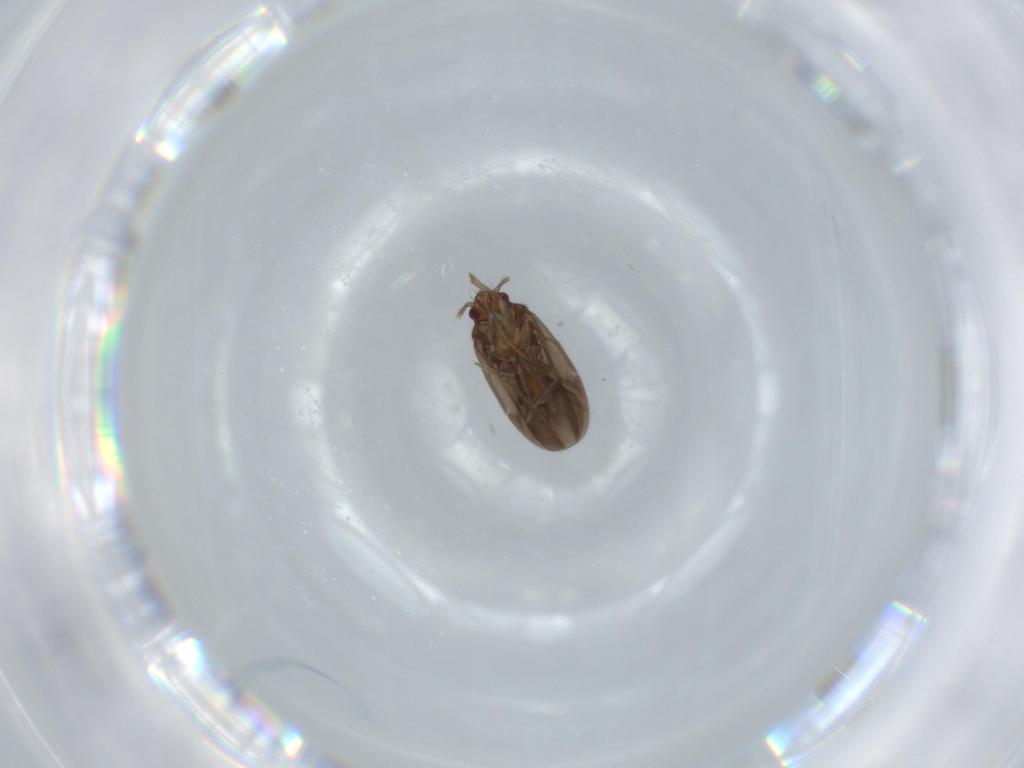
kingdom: Animalia
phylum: Arthropoda
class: Insecta
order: Hemiptera
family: Ceratocombidae
